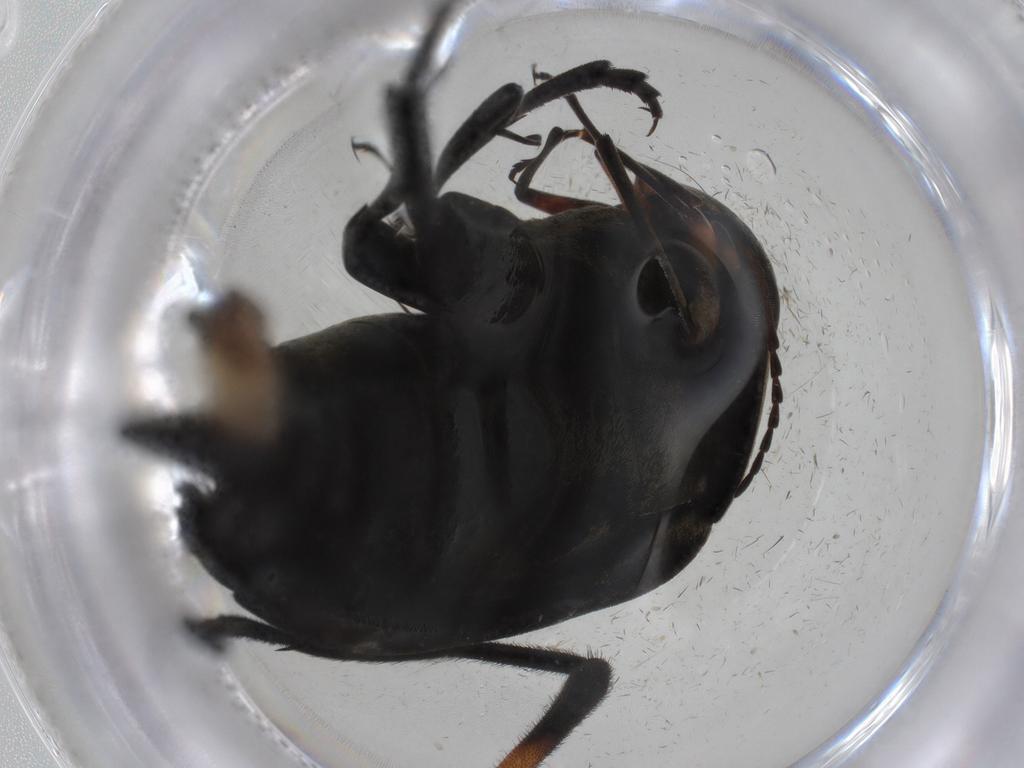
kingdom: Animalia
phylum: Arthropoda
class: Insecta
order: Coleoptera
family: Mordellidae
